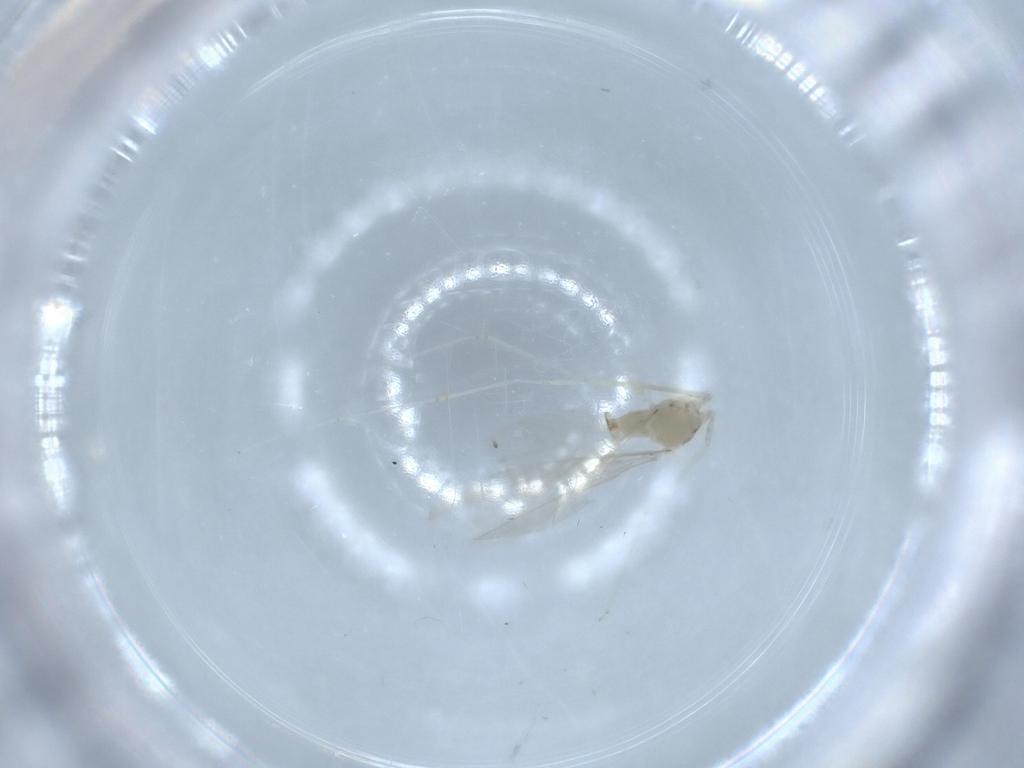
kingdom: Animalia
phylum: Arthropoda
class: Insecta
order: Diptera
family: Cecidomyiidae
